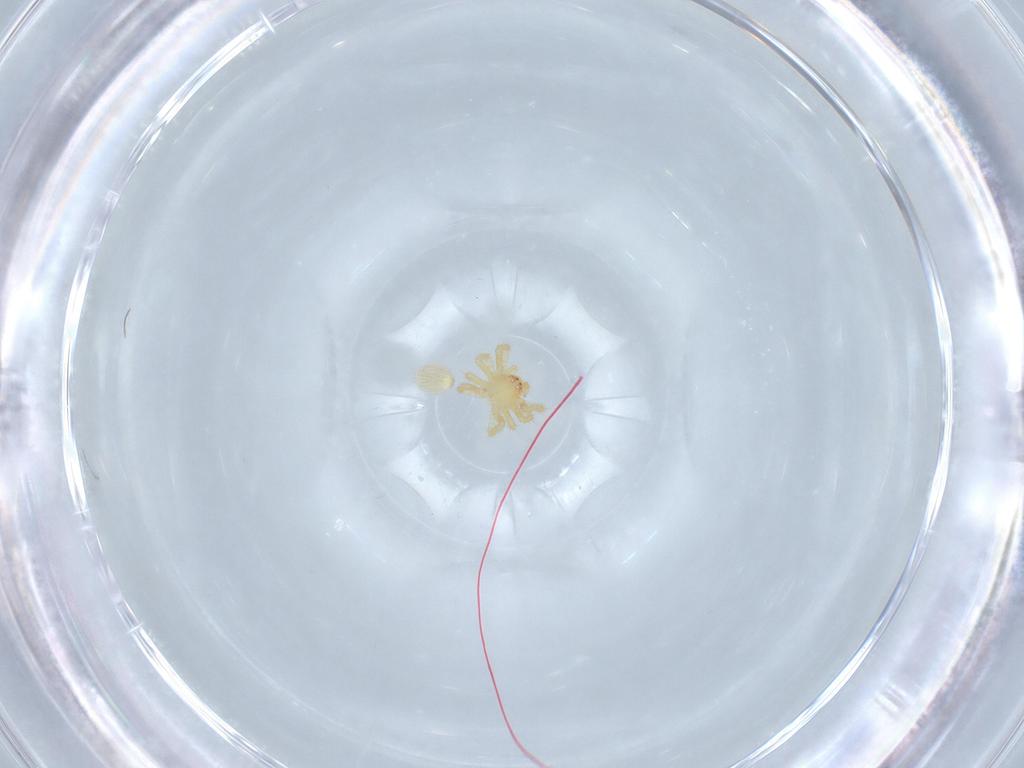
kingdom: Animalia
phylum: Arthropoda
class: Arachnida
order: Araneae
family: Theridiidae
